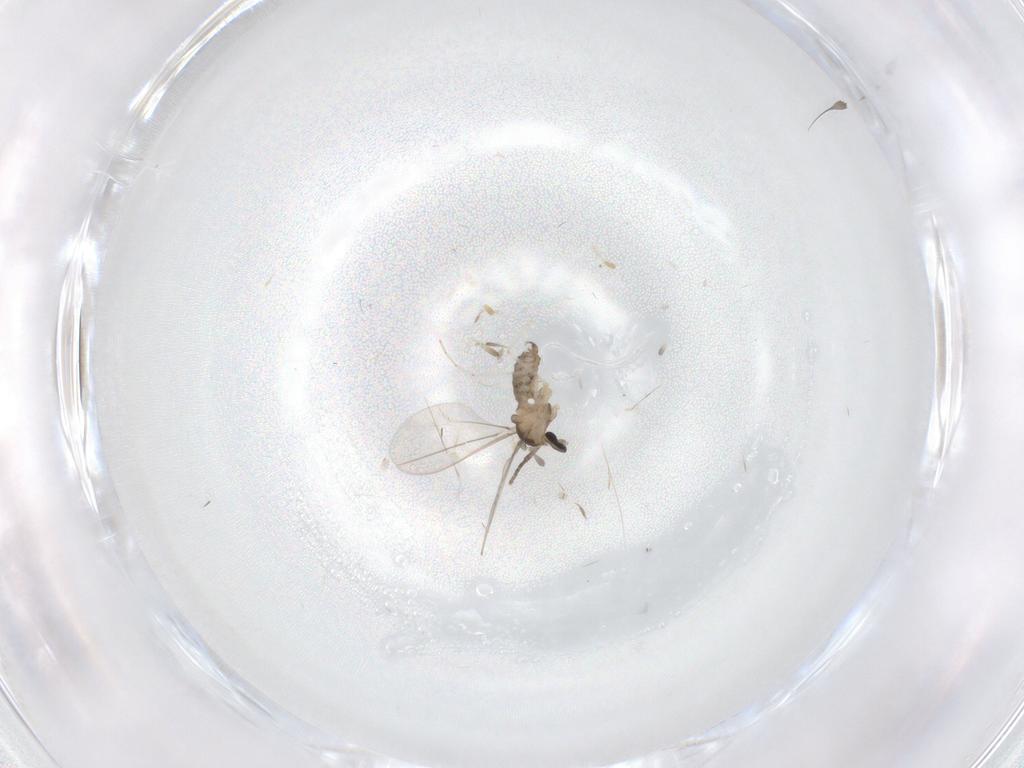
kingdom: Animalia
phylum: Arthropoda
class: Insecta
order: Diptera
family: Cecidomyiidae
